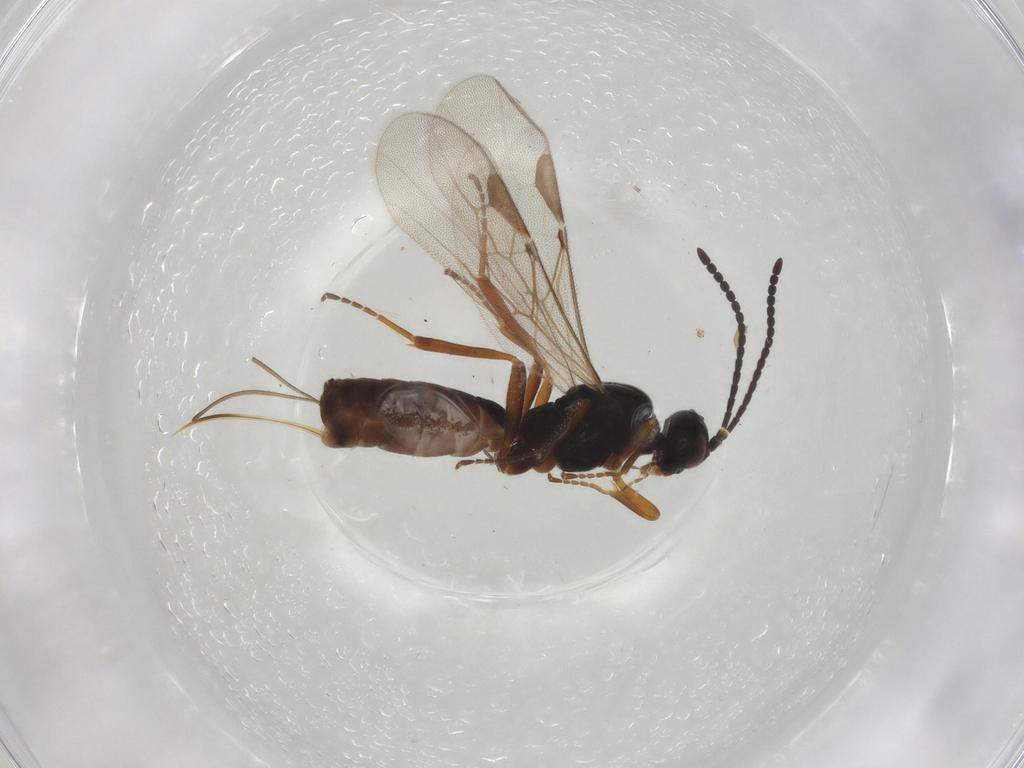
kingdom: Animalia
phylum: Arthropoda
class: Insecta
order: Hymenoptera
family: Braconidae
